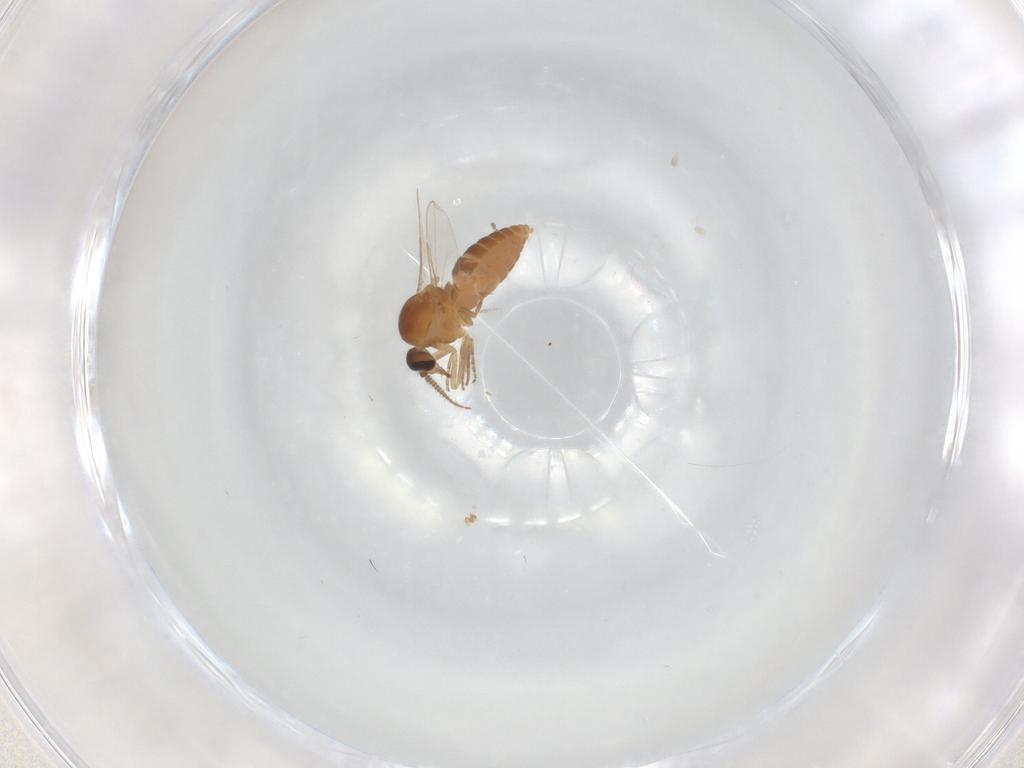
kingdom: Animalia
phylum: Arthropoda
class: Insecta
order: Diptera
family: Ceratopogonidae
